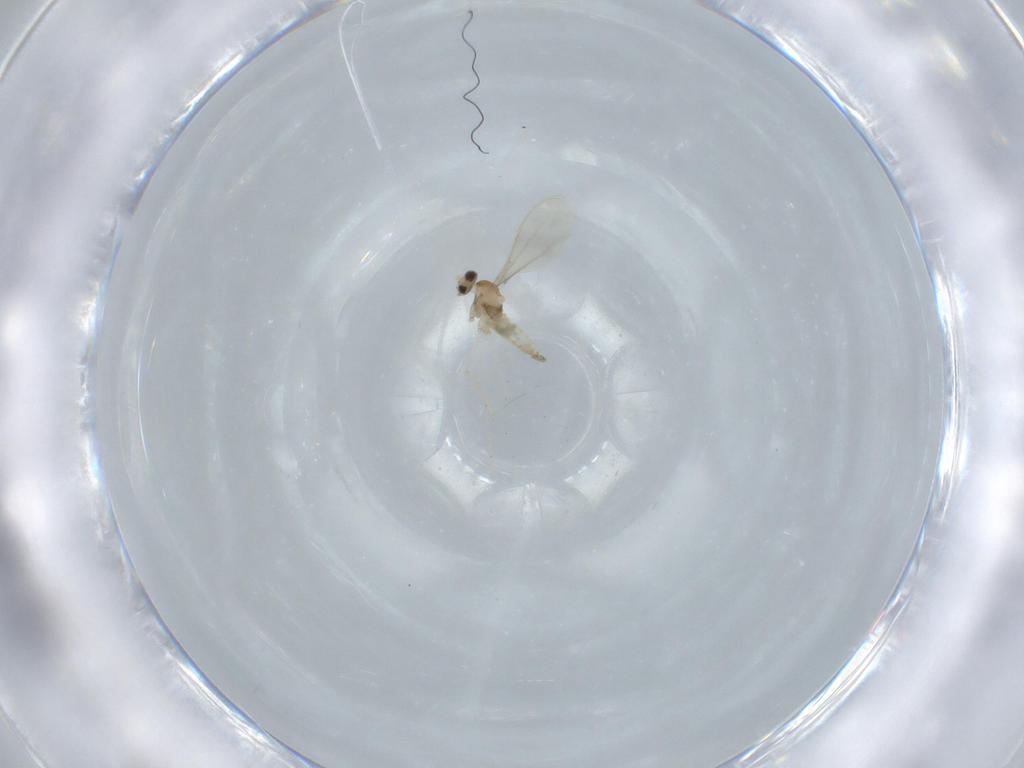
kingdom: Animalia
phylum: Arthropoda
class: Insecta
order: Diptera
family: Cecidomyiidae
